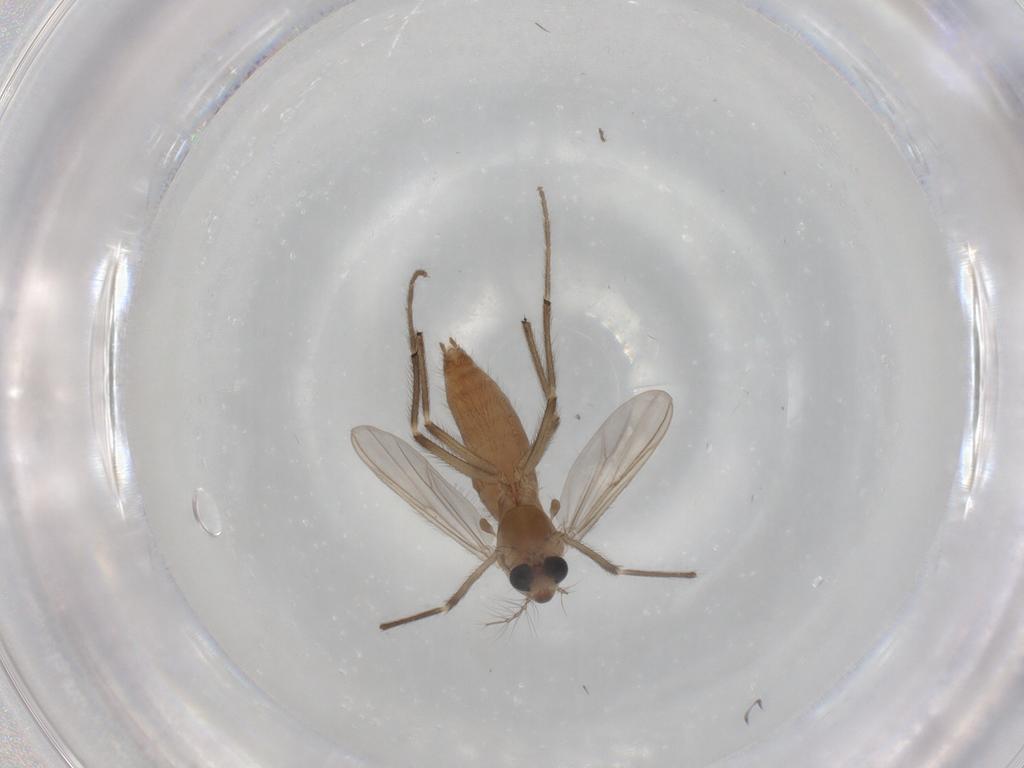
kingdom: Animalia
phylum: Arthropoda
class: Insecta
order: Diptera
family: Chironomidae
